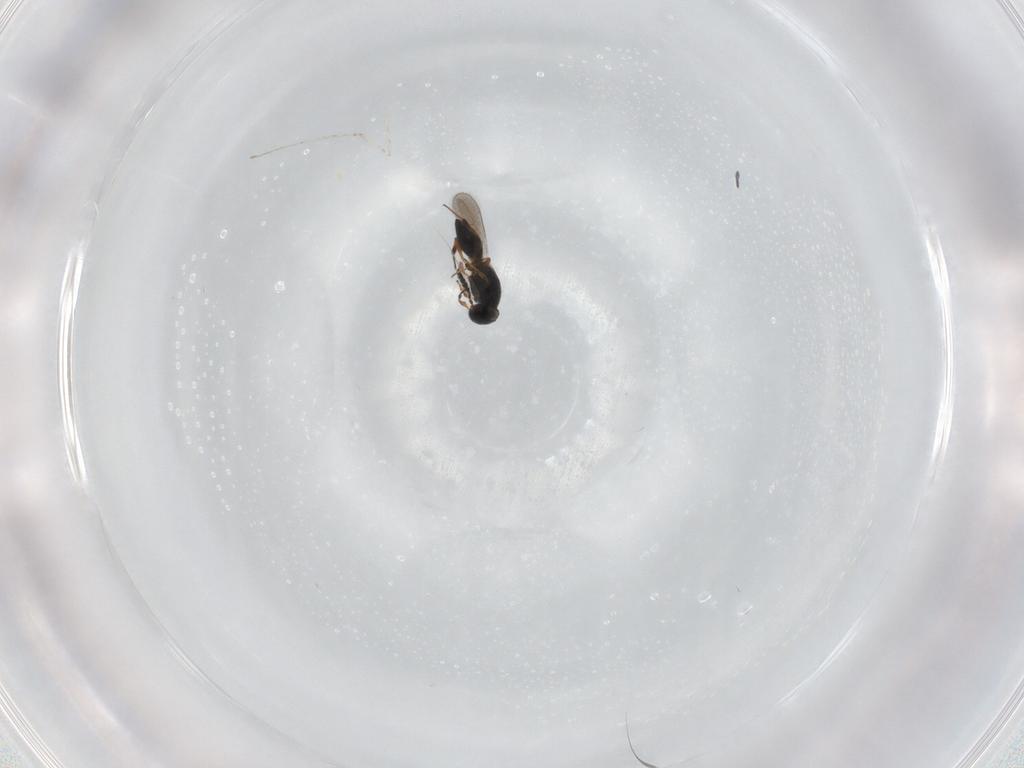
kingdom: Animalia
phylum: Arthropoda
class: Insecta
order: Hymenoptera
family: Platygastridae
